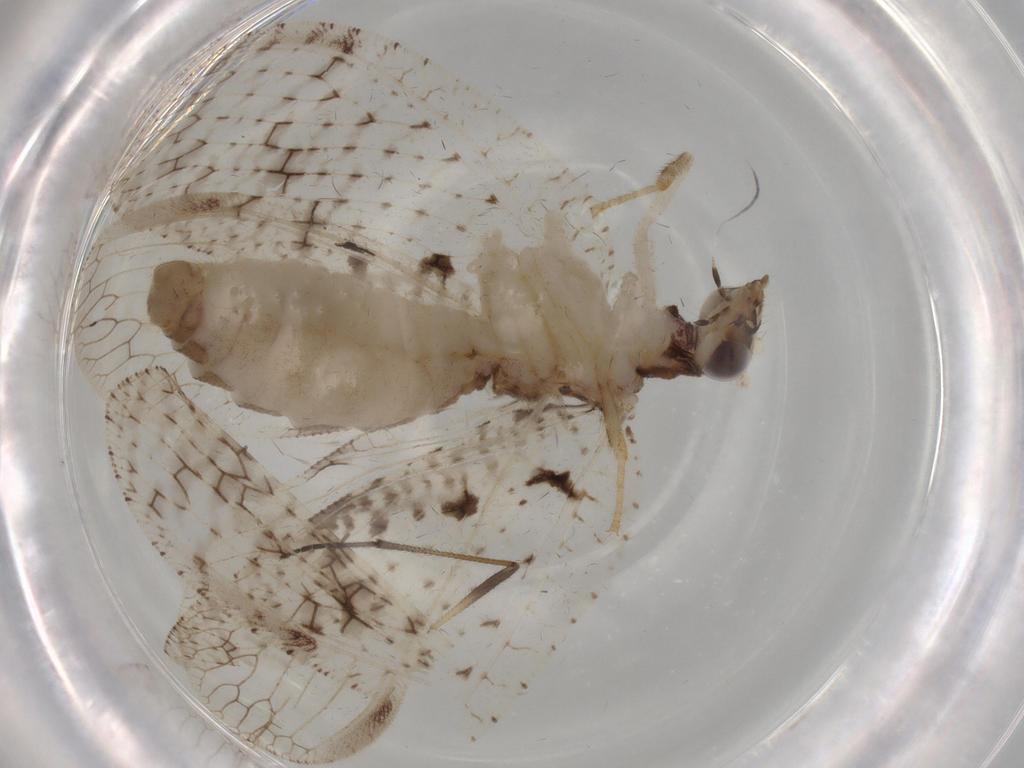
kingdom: Animalia
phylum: Arthropoda
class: Insecta
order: Neuroptera
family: Hemerobiidae
